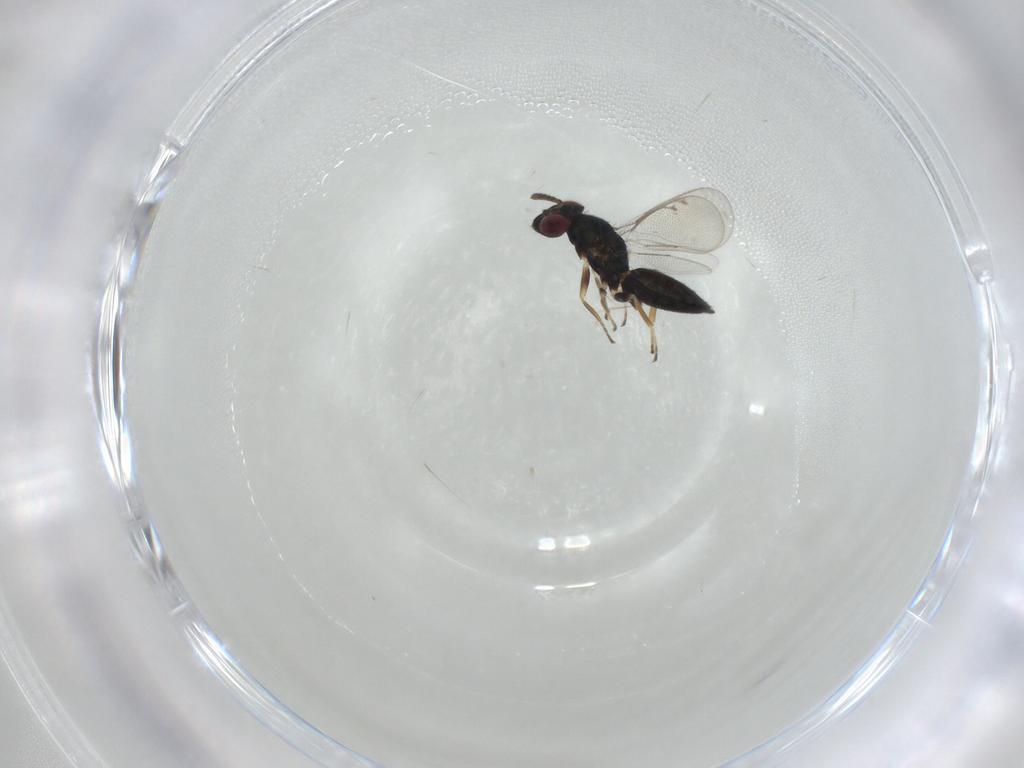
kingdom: Animalia
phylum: Arthropoda
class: Insecta
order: Hymenoptera
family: Eulophidae
